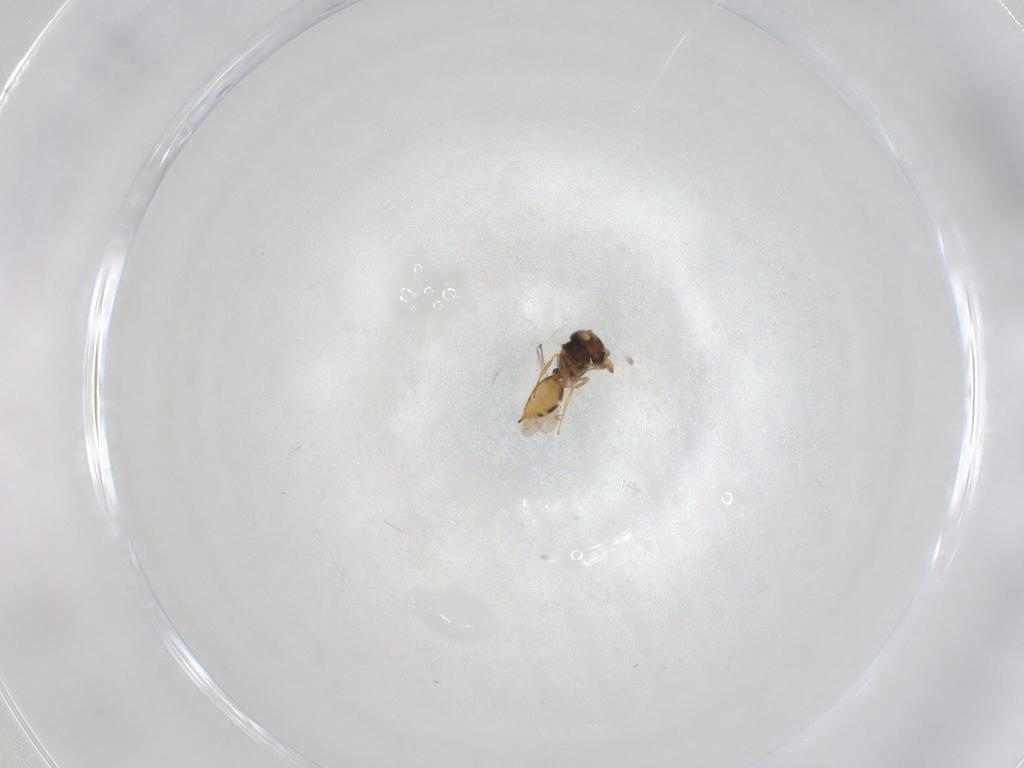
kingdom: Animalia
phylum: Arthropoda
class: Insecta
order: Hymenoptera
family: Scelionidae
